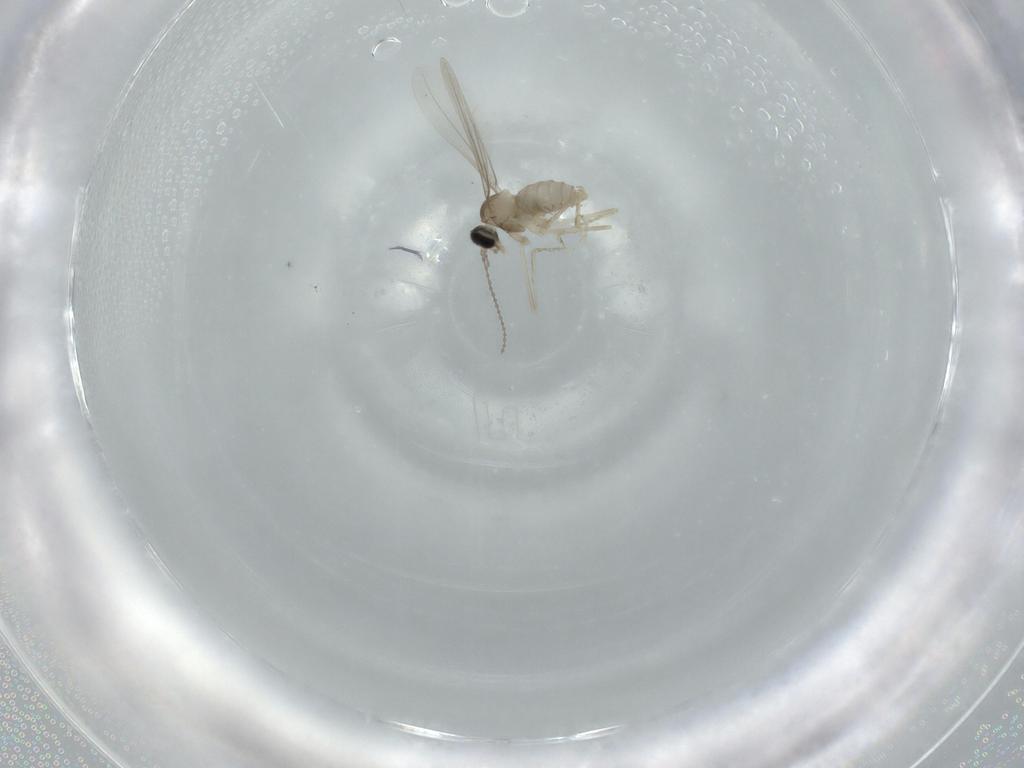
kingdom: Animalia
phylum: Arthropoda
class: Insecta
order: Diptera
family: Cecidomyiidae
